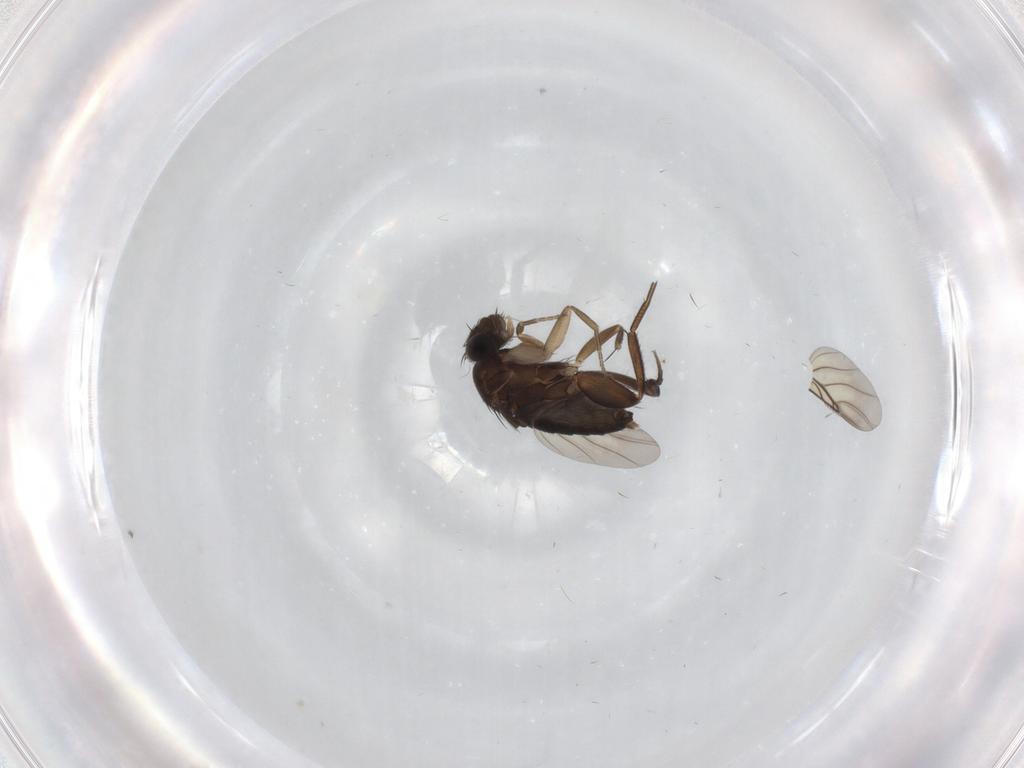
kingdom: Animalia
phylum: Arthropoda
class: Insecta
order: Diptera
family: Phoridae
